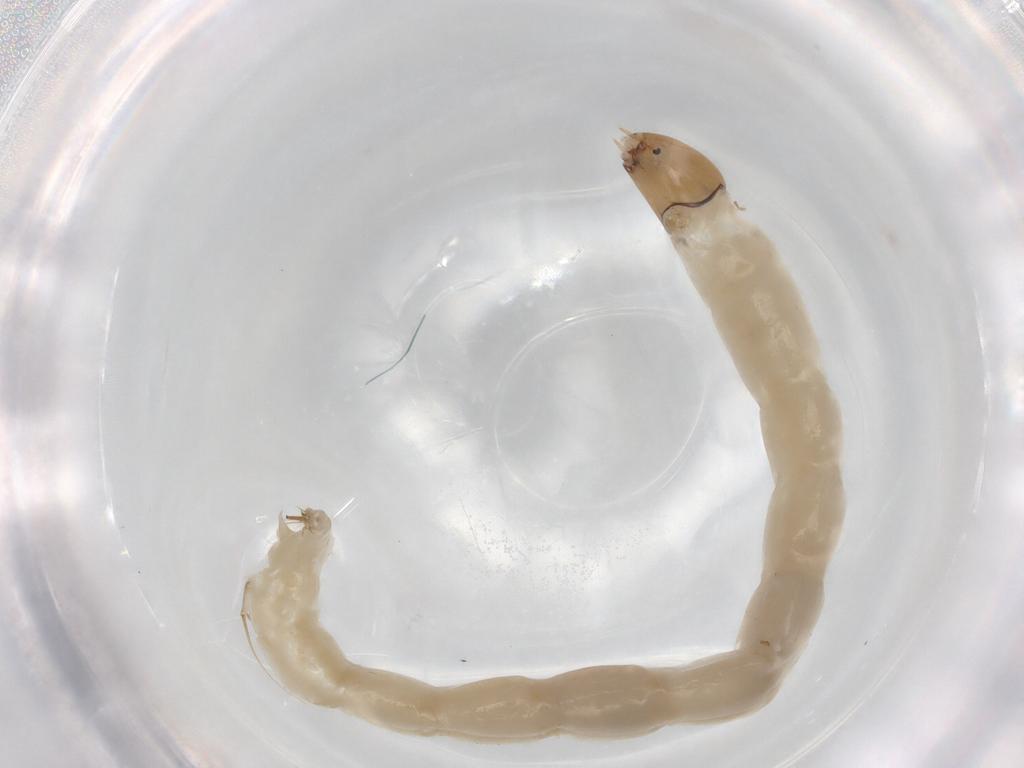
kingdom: Animalia
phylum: Arthropoda
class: Insecta
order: Diptera
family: Chironomidae
